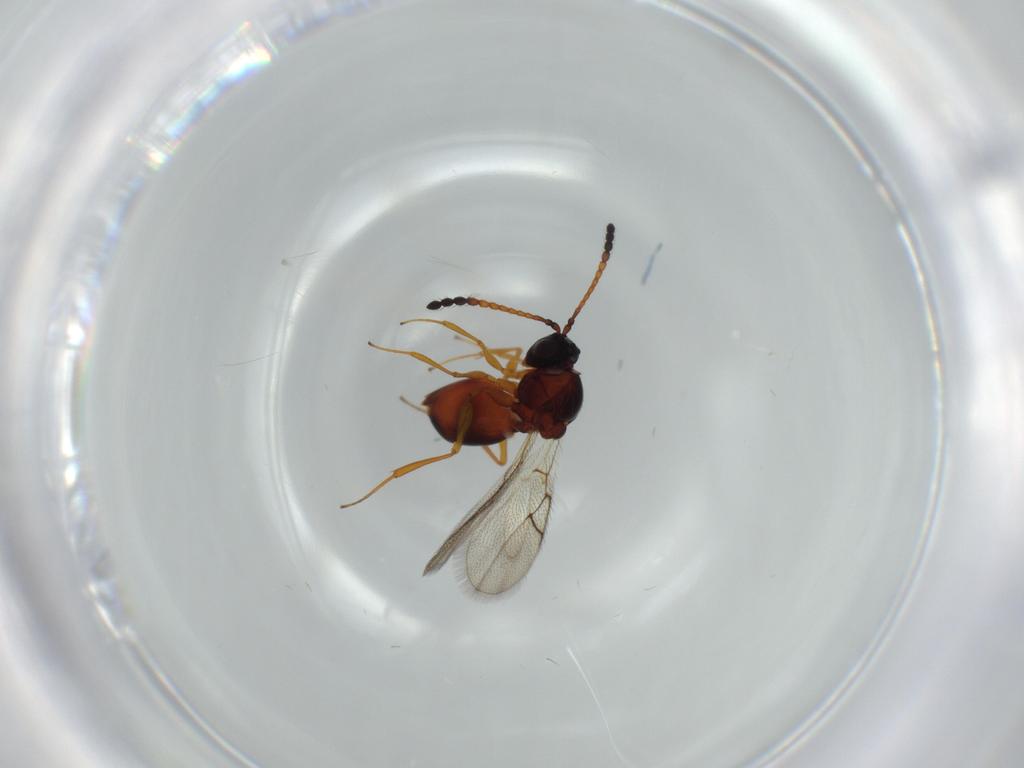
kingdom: Animalia
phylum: Arthropoda
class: Insecta
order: Hymenoptera
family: Figitidae
